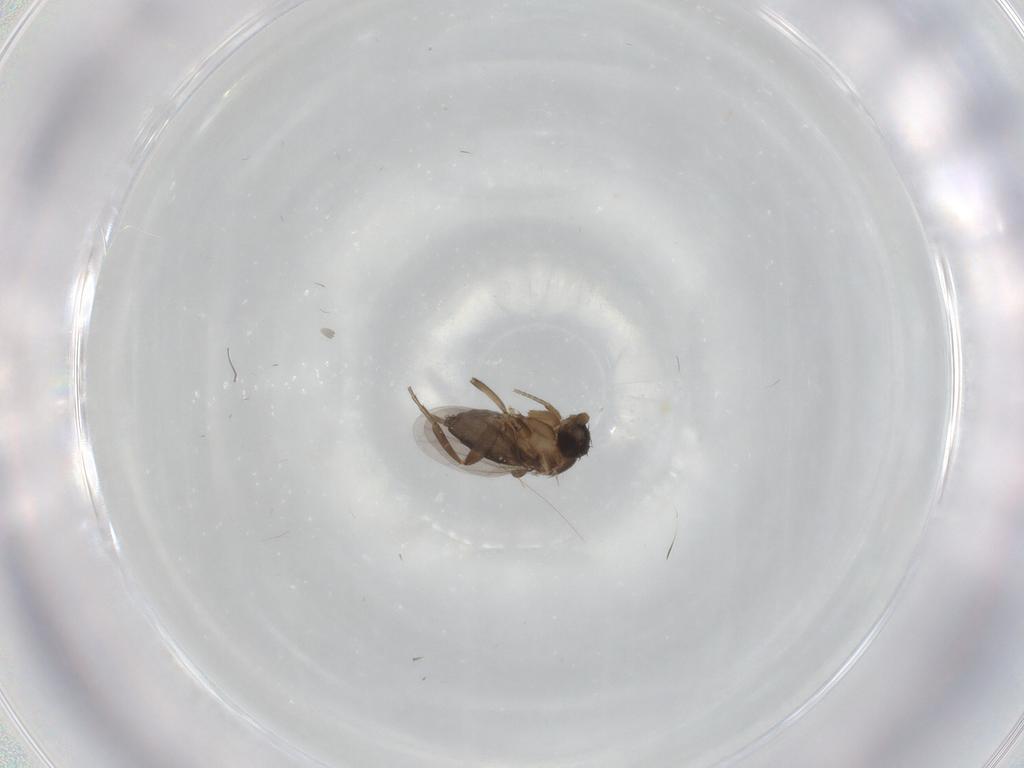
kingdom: Animalia
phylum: Arthropoda
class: Insecta
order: Diptera
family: Phoridae
